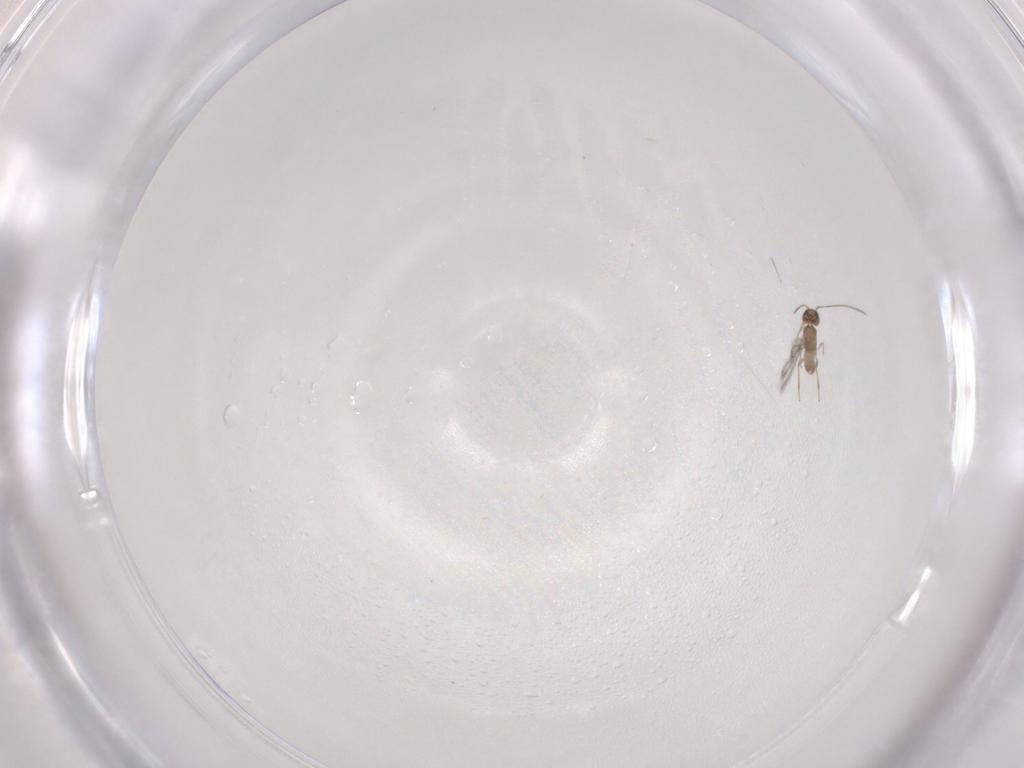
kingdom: Animalia
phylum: Arthropoda
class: Insecta
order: Hymenoptera
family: Mymaridae
